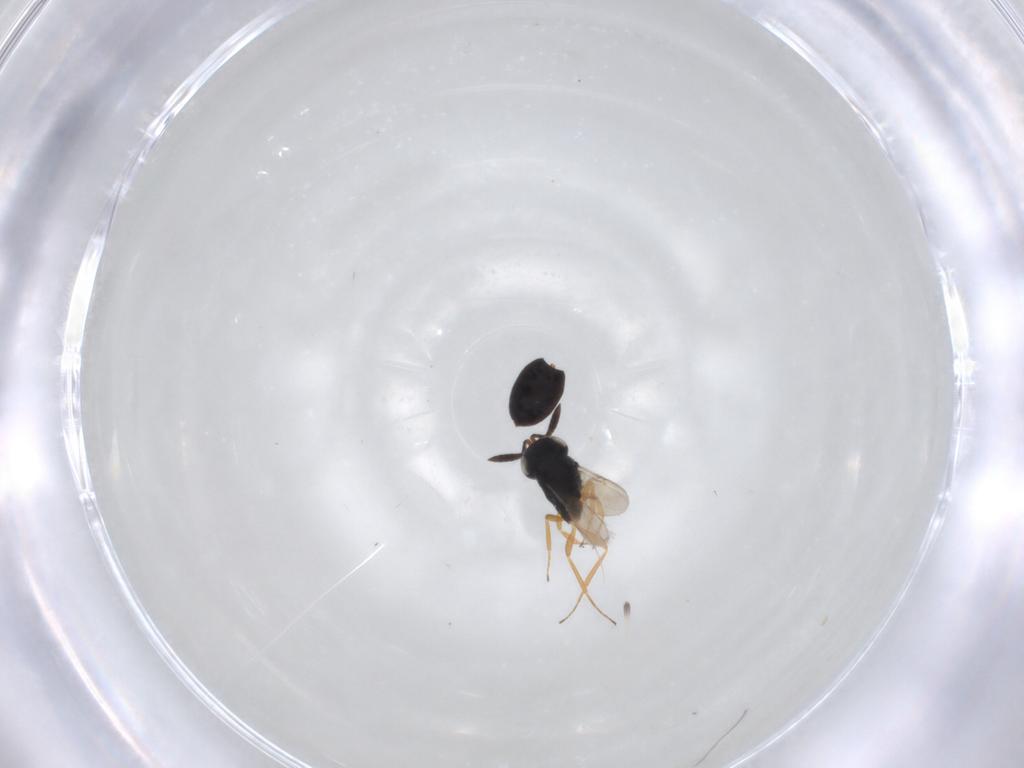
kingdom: Animalia
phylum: Arthropoda
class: Insecta
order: Hymenoptera
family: Scelionidae
